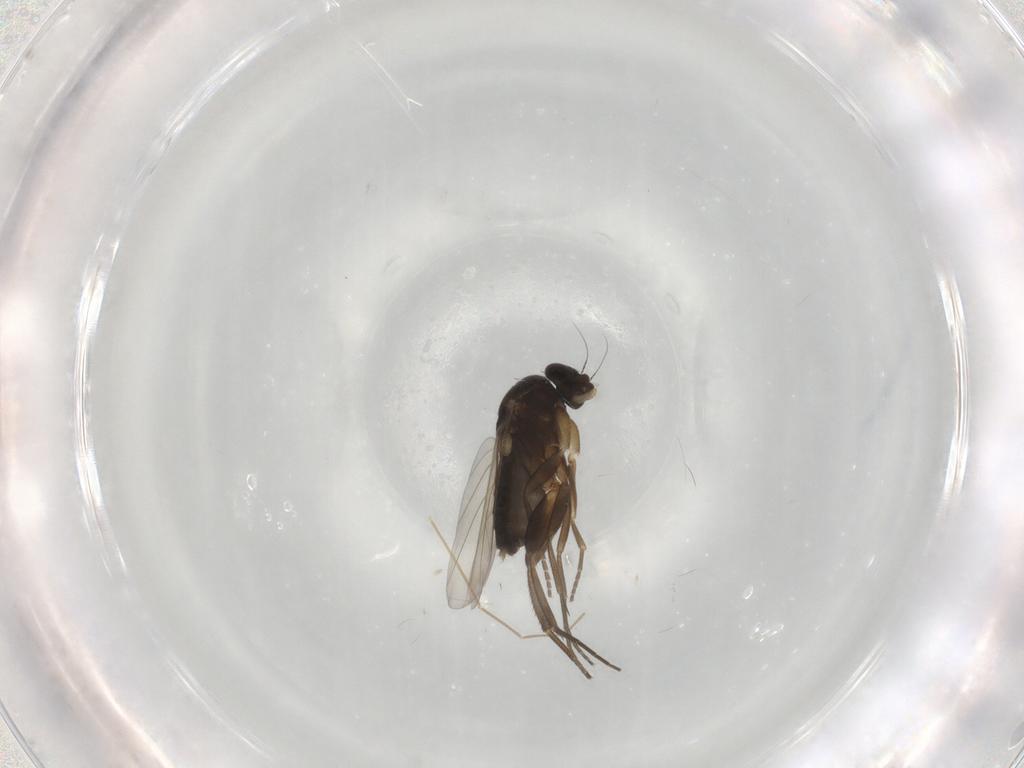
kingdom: Animalia
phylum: Arthropoda
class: Insecta
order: Diptera
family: Phoridae
